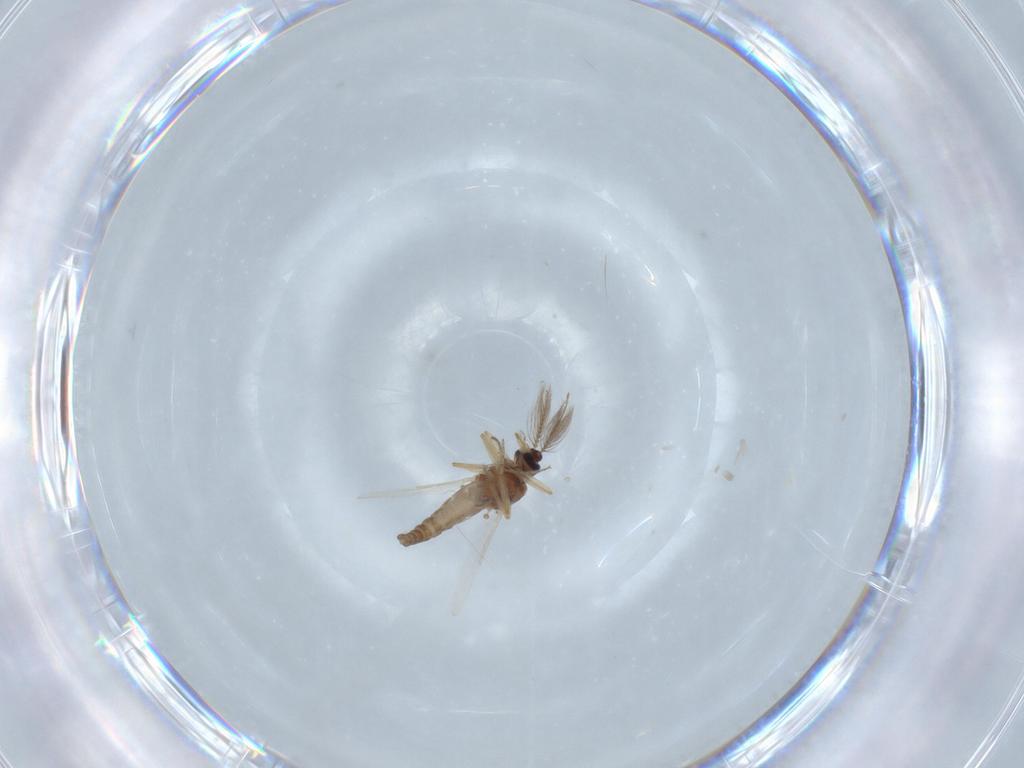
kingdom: Animalia
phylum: Arthropoda
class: Insecta
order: Diptera
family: Ceratopogonidae
